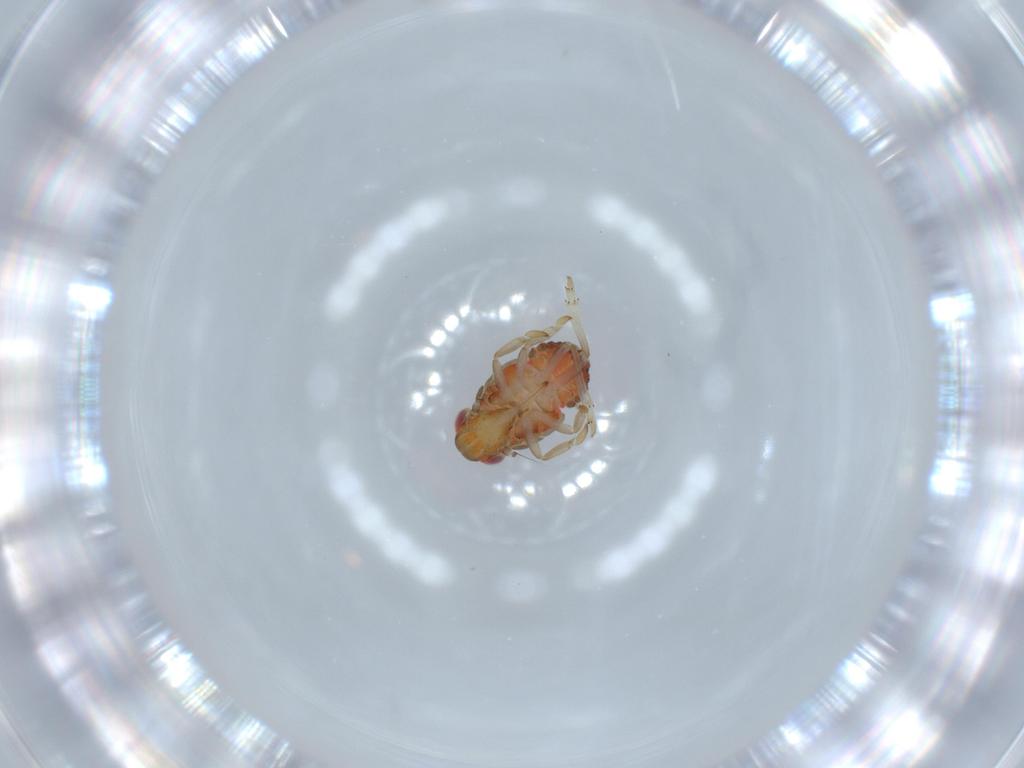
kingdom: Animalia
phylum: Arthropoda
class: Insecta
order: Hemiptera
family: Issidae
